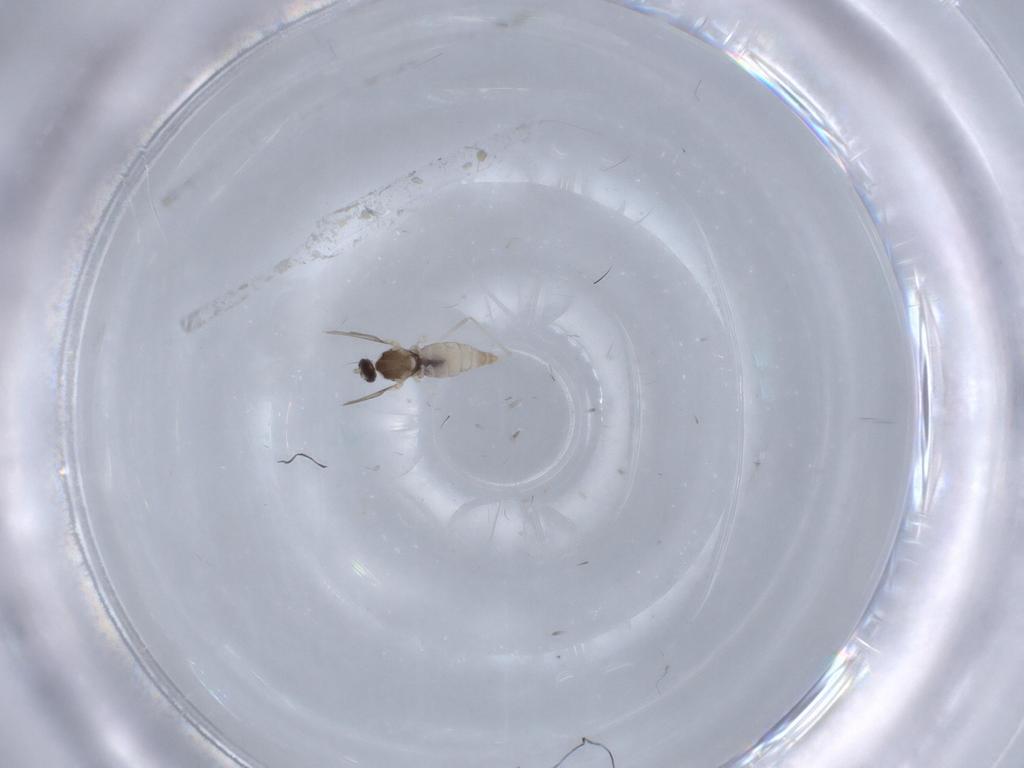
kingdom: Animalia
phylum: Arthropoda
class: Insecta
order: Diptera
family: Cecidomyiidae
